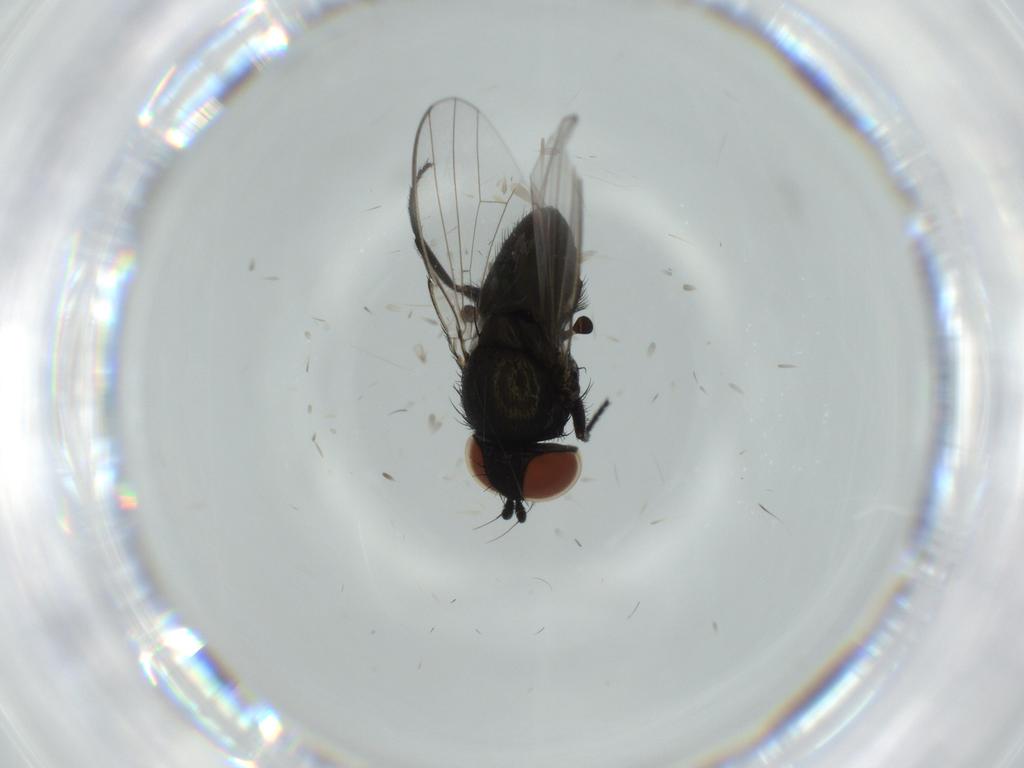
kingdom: Animalia
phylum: Arthropoda
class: Insecta
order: Diptera
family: Milichiidae
